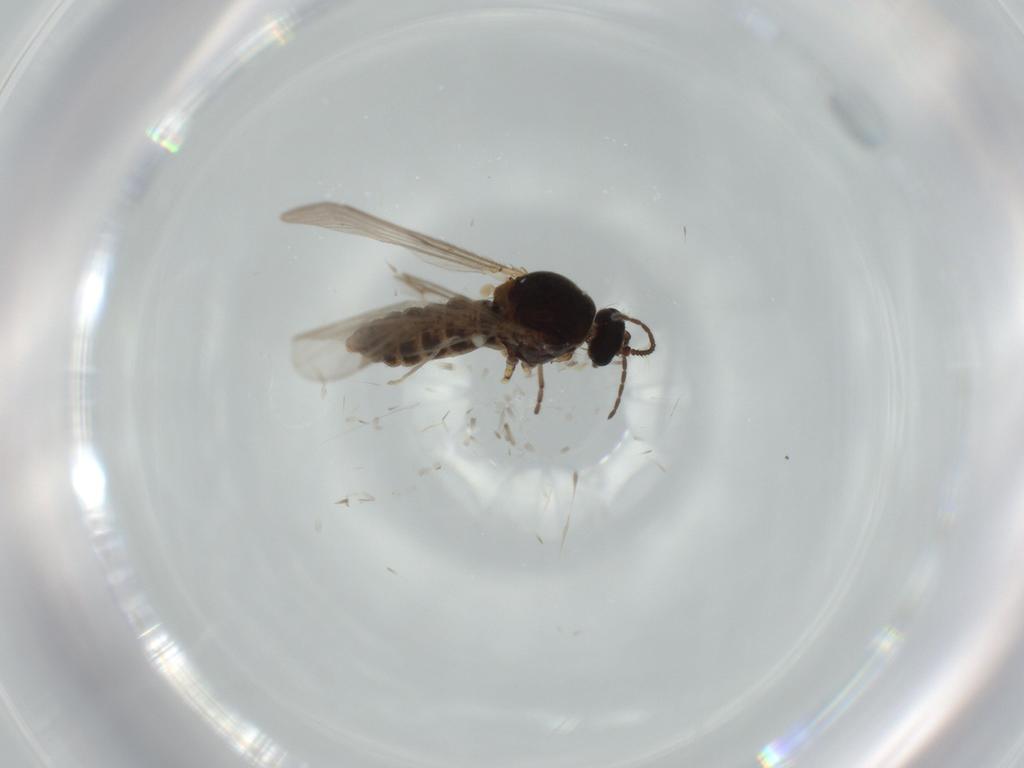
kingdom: Animalia
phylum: Arthropoda
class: Insecta
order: Diptera
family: Ceratopogonidae
